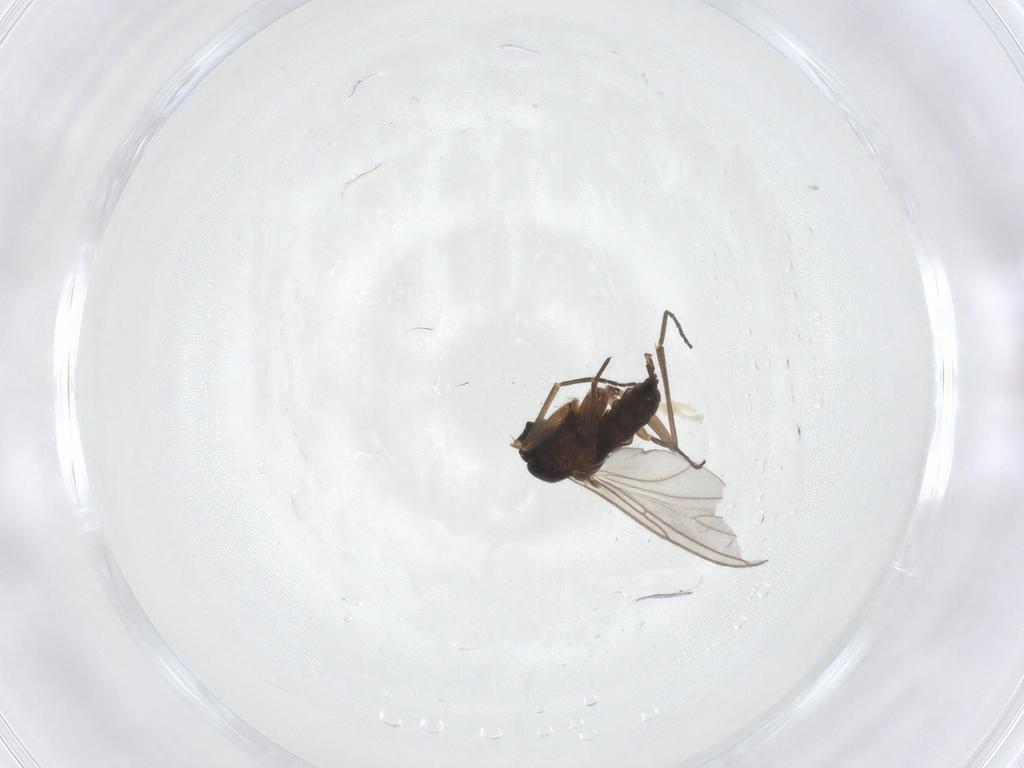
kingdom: Animalia
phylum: Arthropoda
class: Insecta
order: Diptera
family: Sciaridae
